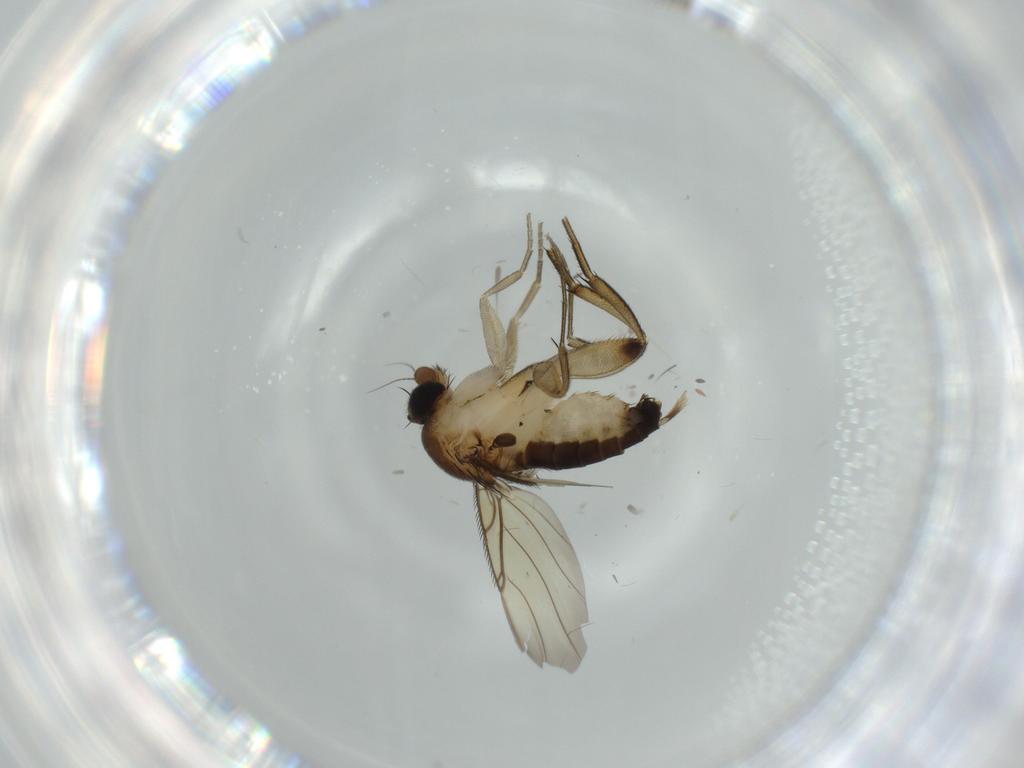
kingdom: Animalia
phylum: Arthropoda
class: Insecta
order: Diptera
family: Phoridae
